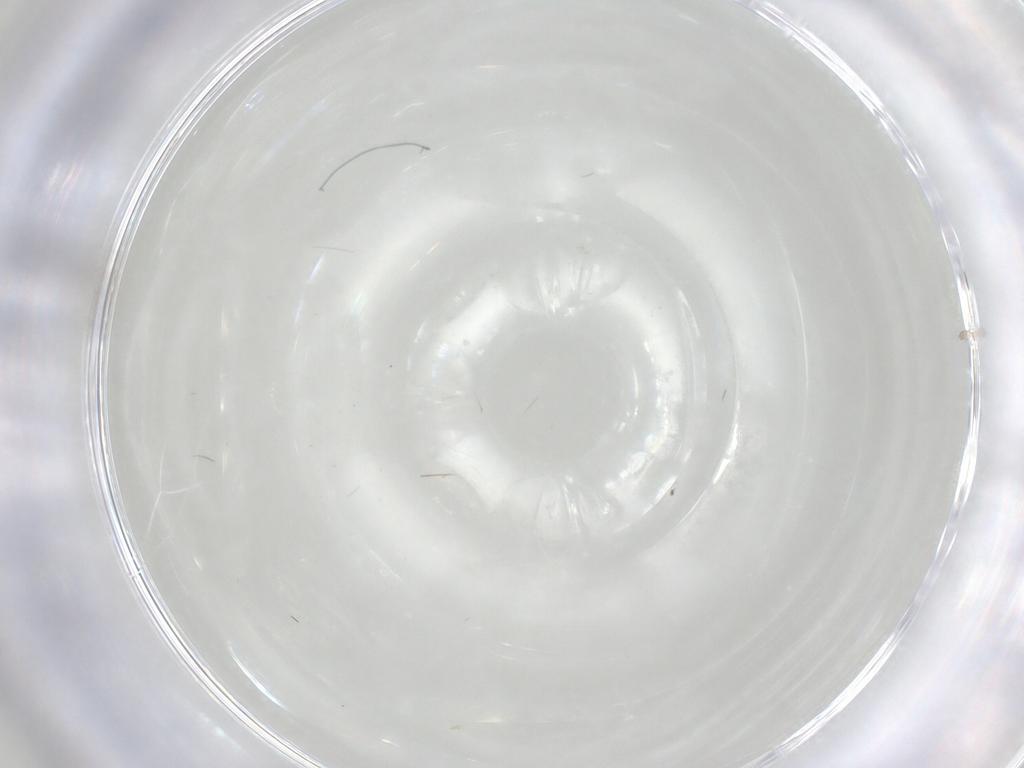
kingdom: Animalia
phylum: Arthropoda
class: Insecta
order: Diptera
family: Cecidomyiidae
